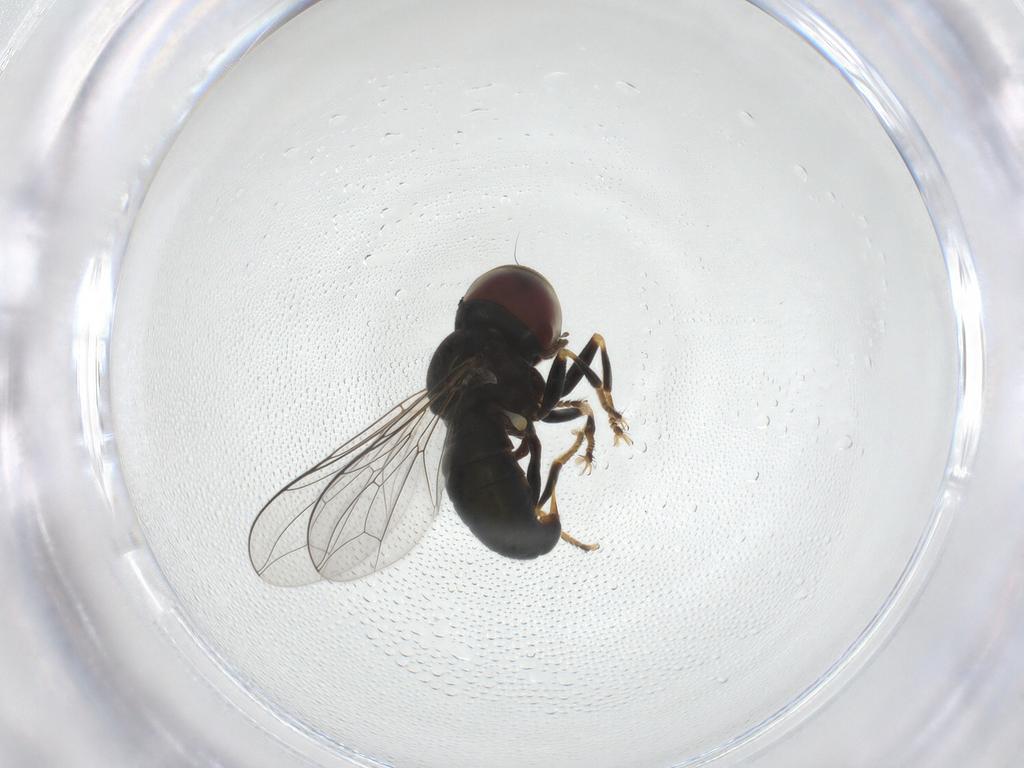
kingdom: Animalia
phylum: Arthropoda
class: Insecta
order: Diptera
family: Pipunculidae
